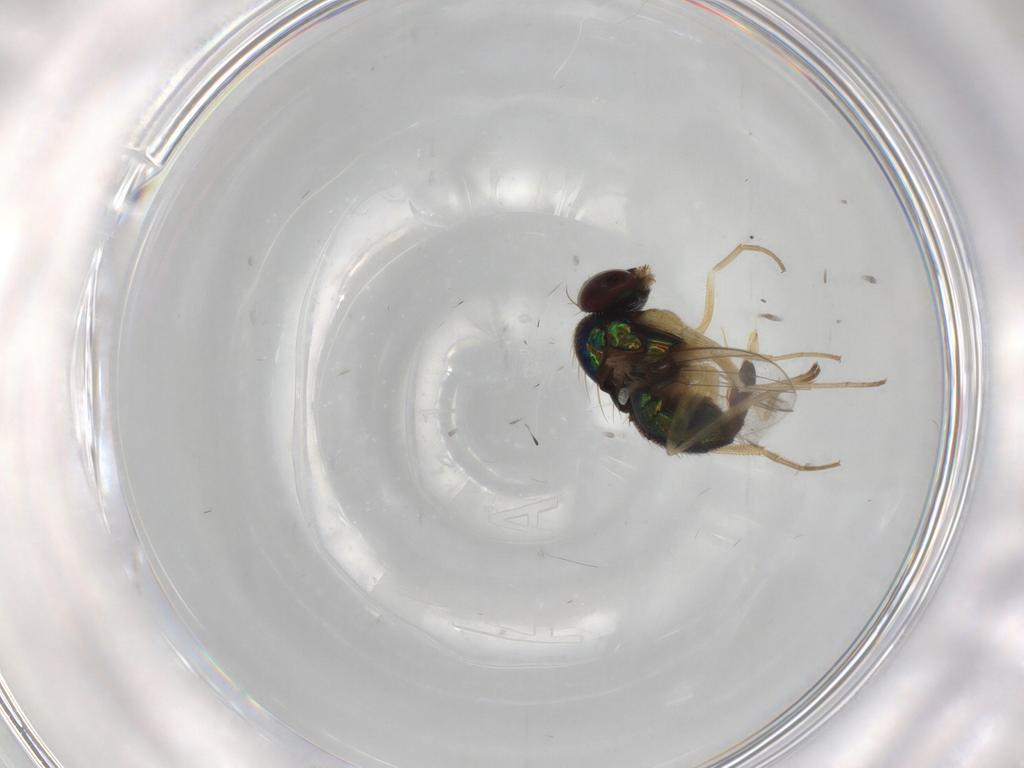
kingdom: Animalia
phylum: Arthropoda
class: Insecta
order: Diptera
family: Dolichopodidae
